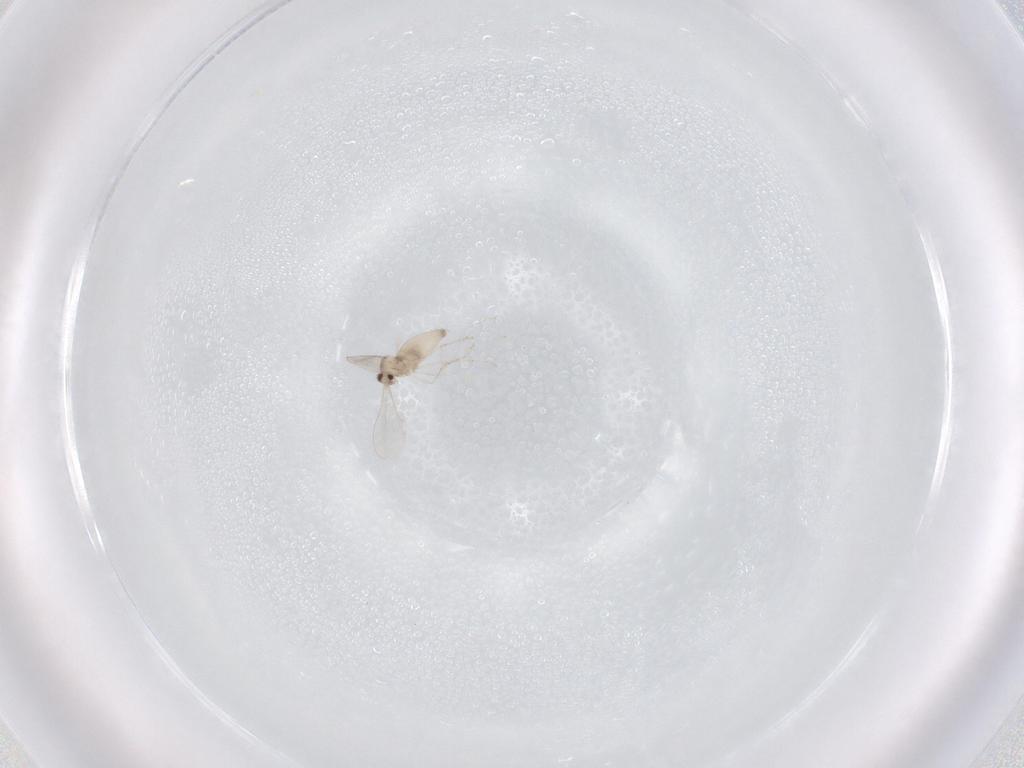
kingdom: Animalia
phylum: Arthropoda
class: Insecta
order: Diptera
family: Cecidomyiidae
